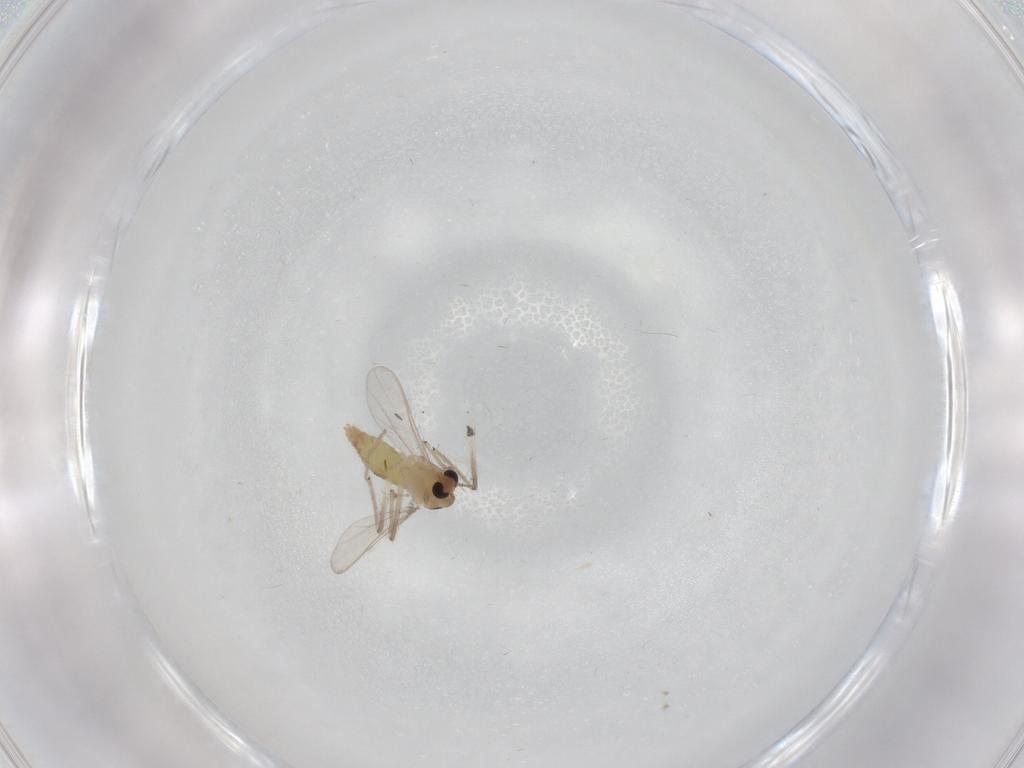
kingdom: Animalia
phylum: Arthropoda
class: Insecta
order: Diptera
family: Chironomidae
